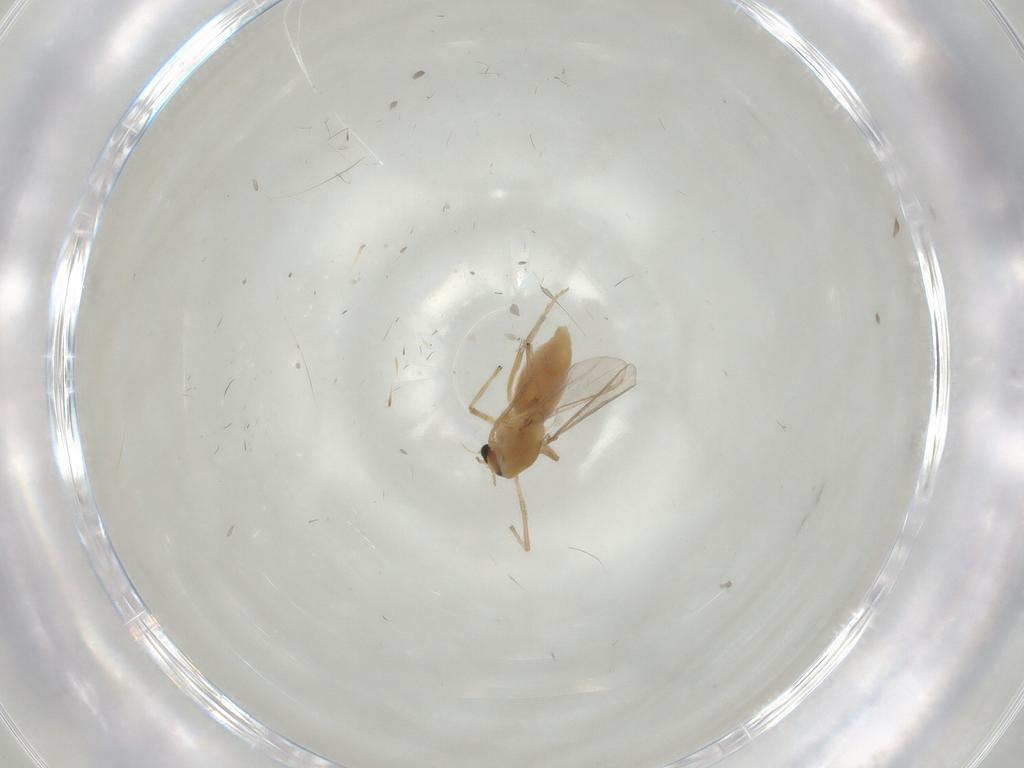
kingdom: Animalia
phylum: Arthropoda
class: Insecta
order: Diptera
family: Chironomidae
